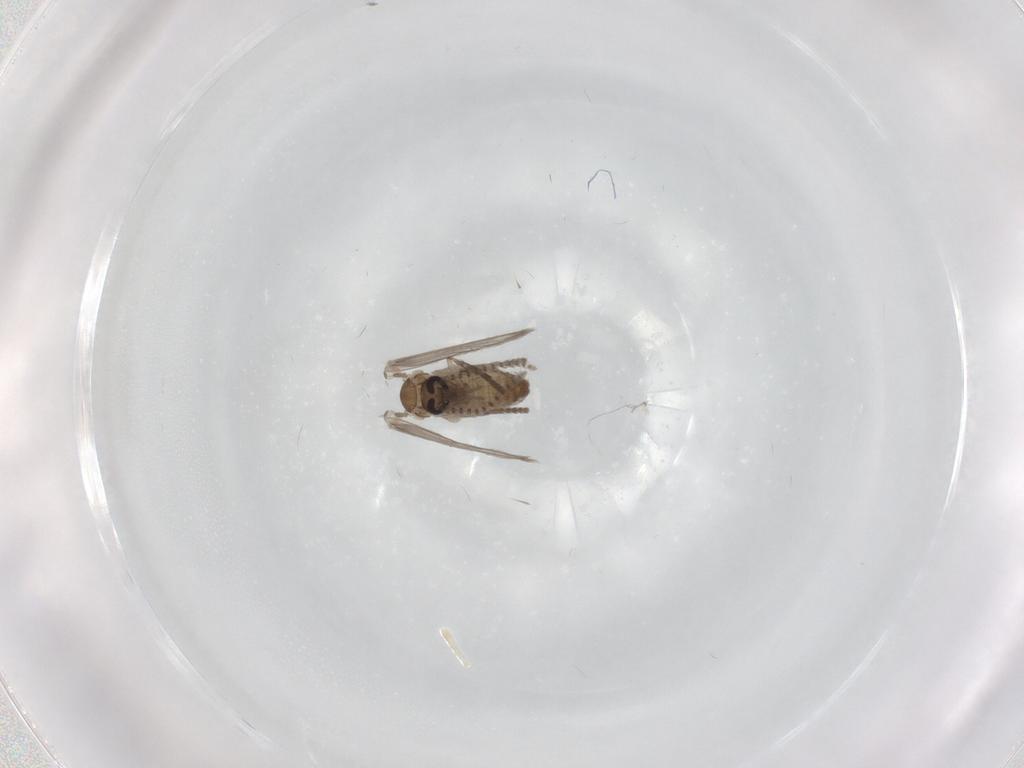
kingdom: Animalia
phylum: Arthropoda
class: Insecta
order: Diptera
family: Psychodidae
